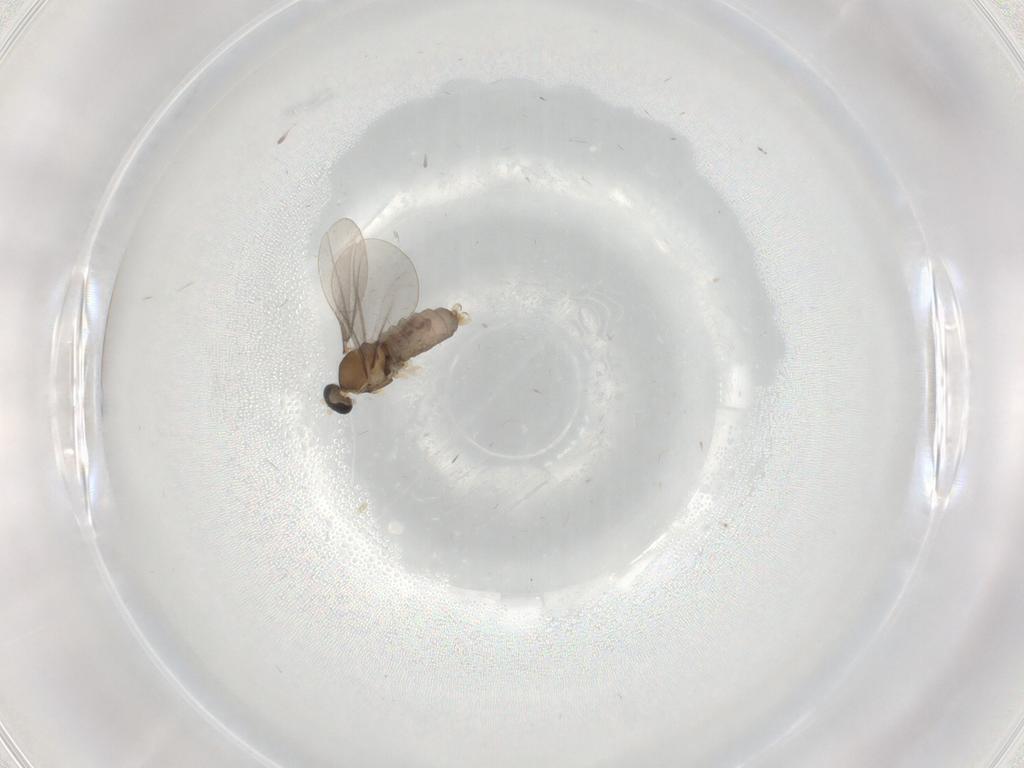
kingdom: Animalia
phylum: Arthropoda
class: Insecta
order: Diptera
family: Cecidomyiidae
